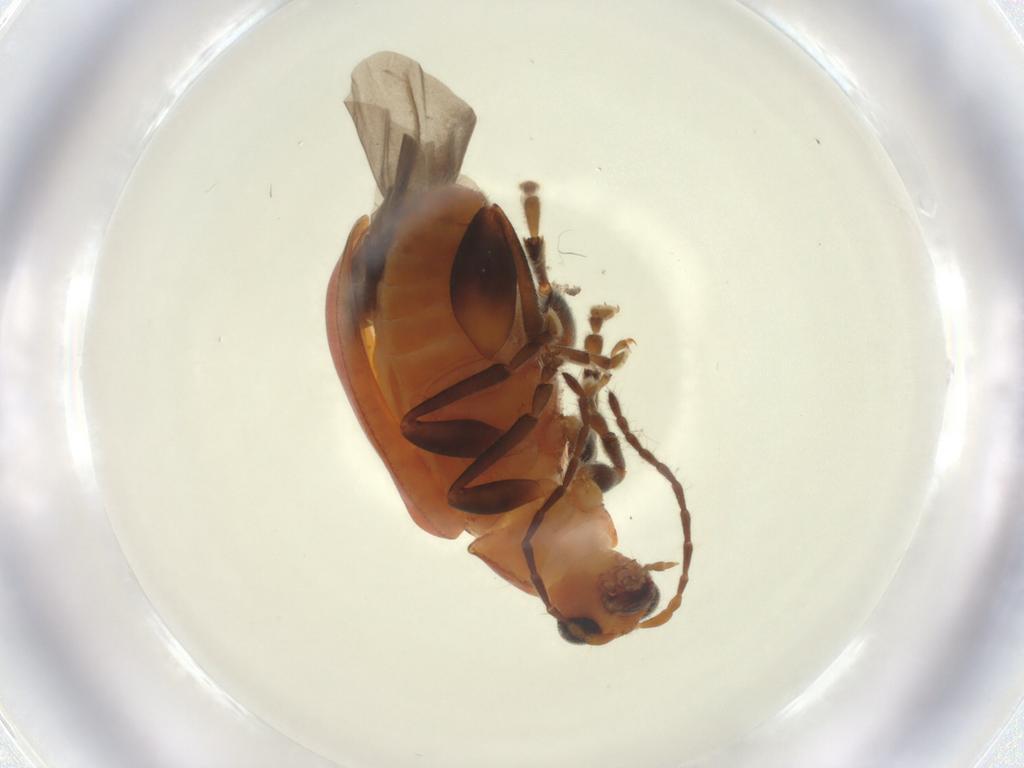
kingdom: Animalia
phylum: Arthropoda
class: Insecta
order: Coleoptera
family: Chrysomelidae
